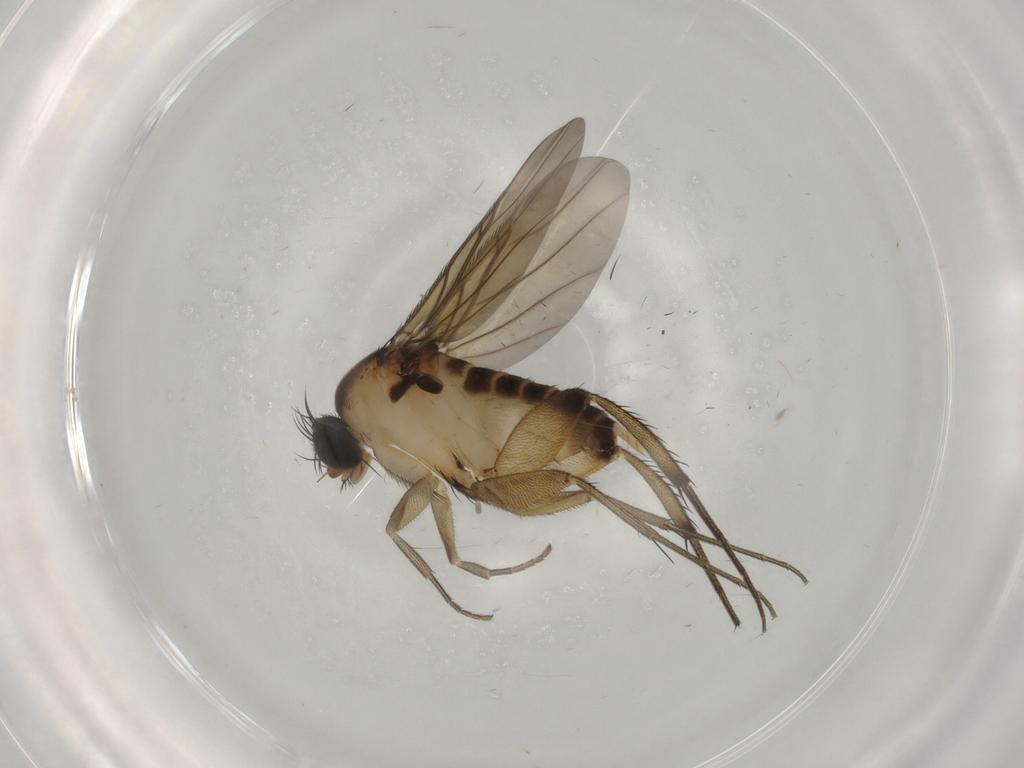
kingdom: Animalia
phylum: Arthropoda
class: Insecta
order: Diptera
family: Phoridae
